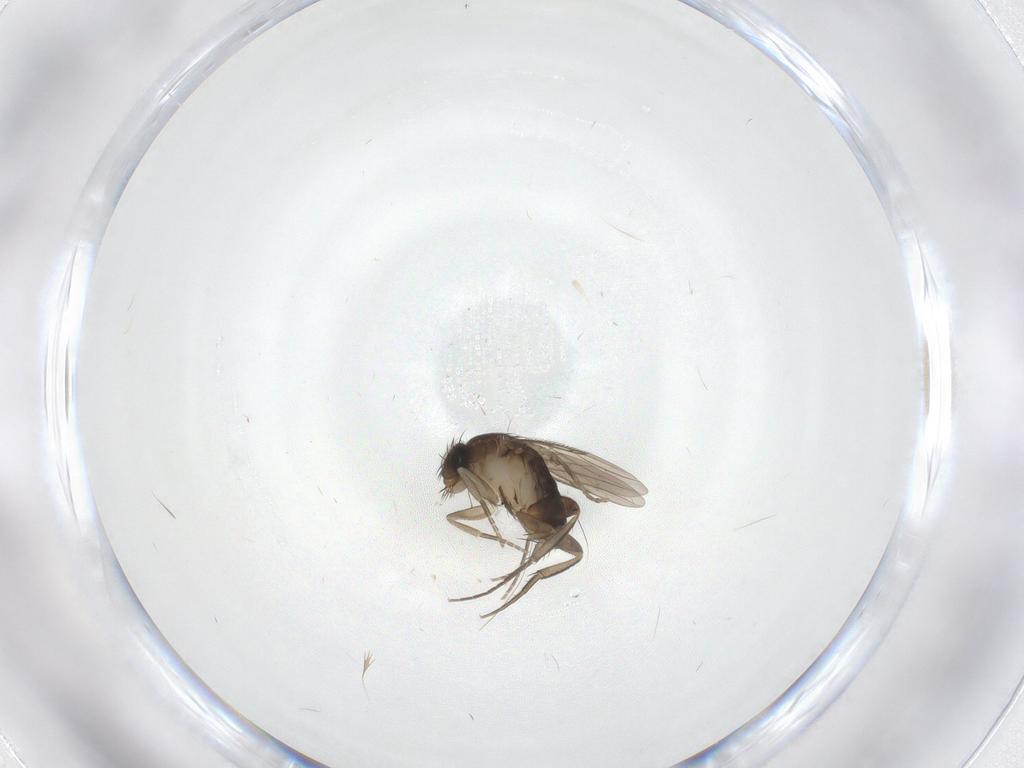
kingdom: Animalia
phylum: Arthropoda
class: Insecta
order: Diptera
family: Phoridae
